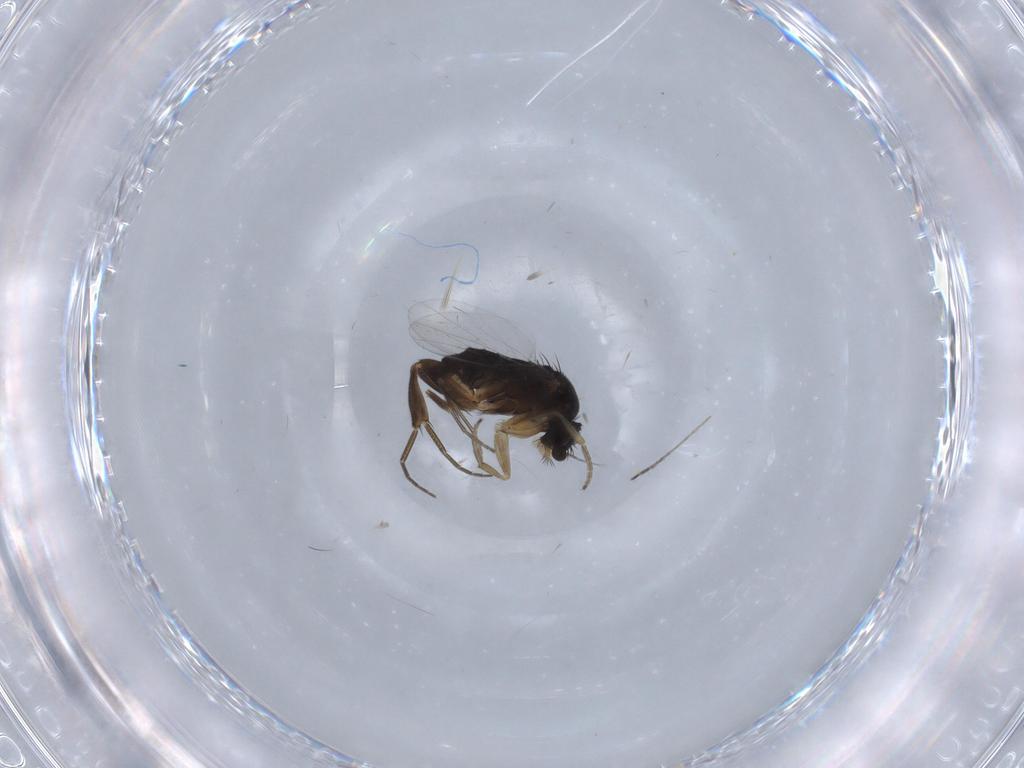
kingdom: Animalia
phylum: Arthropoda
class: Insecta
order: Diptera
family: Phoridae
